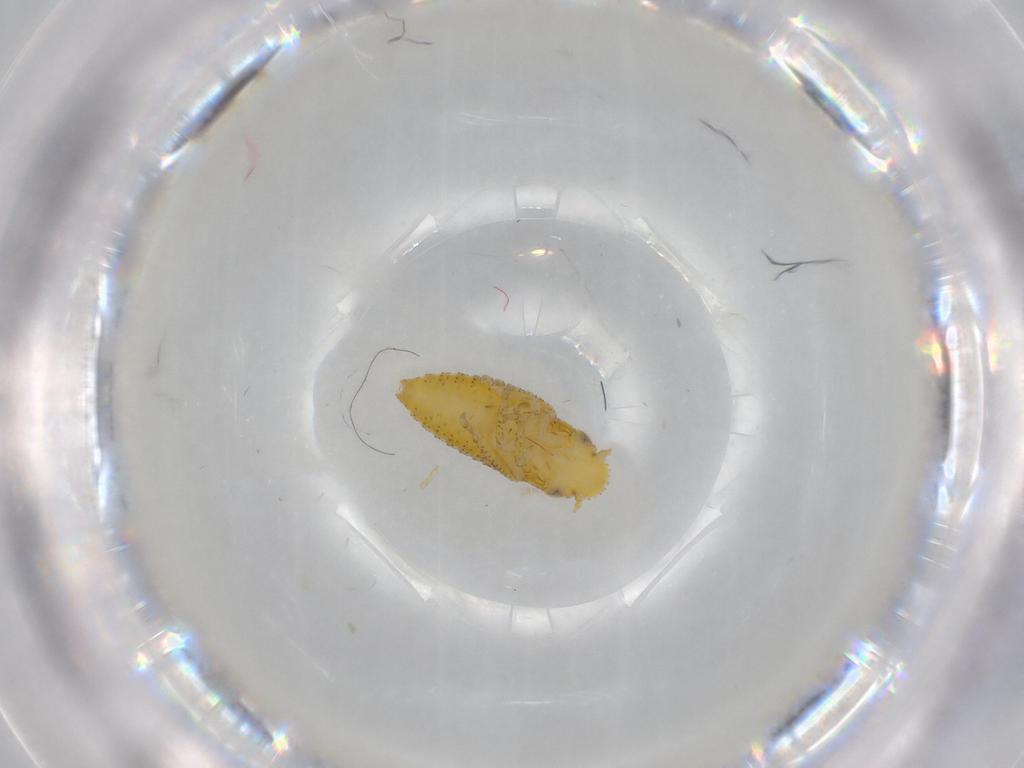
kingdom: Animalia
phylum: Arthropoda
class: Insecta
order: Hemiptera
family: Cicadellidae
